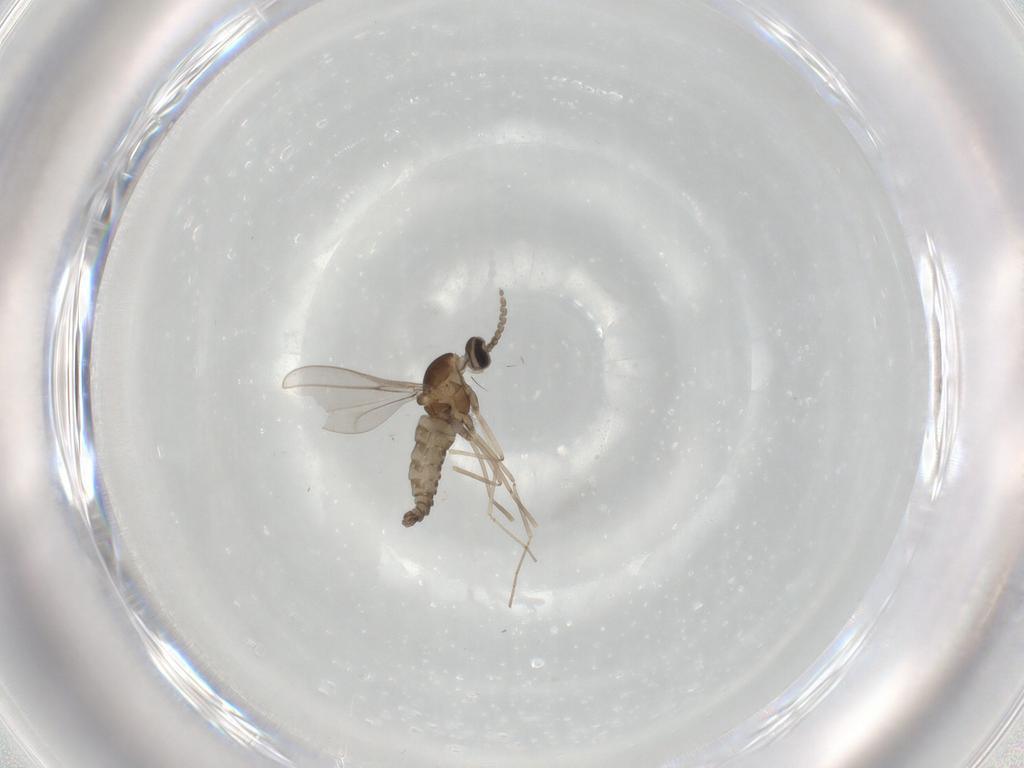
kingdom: Animalia
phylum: Arthropoda
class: Insecta
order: Diptera
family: Cecidomyiidae
